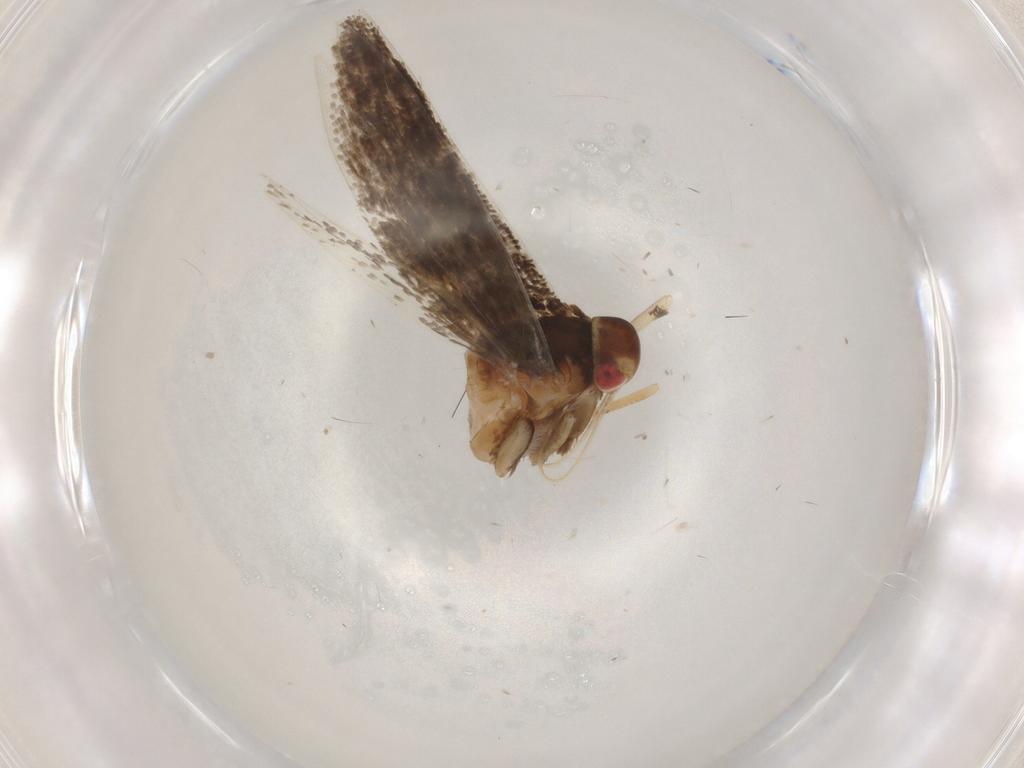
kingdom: Animalia
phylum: Arthropoda
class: Insecta
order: Lepidoptera
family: Cosmopterigidae
